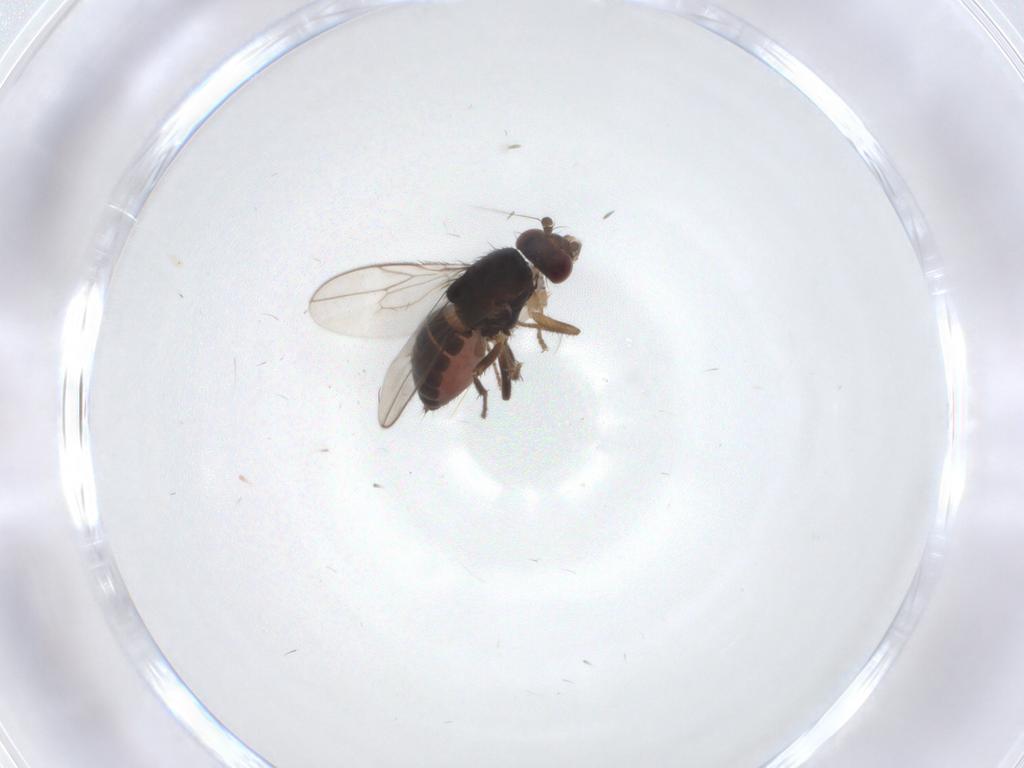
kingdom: Animalia
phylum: Arthropoda
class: Insecta
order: Diptera
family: Sphaeroceridae
